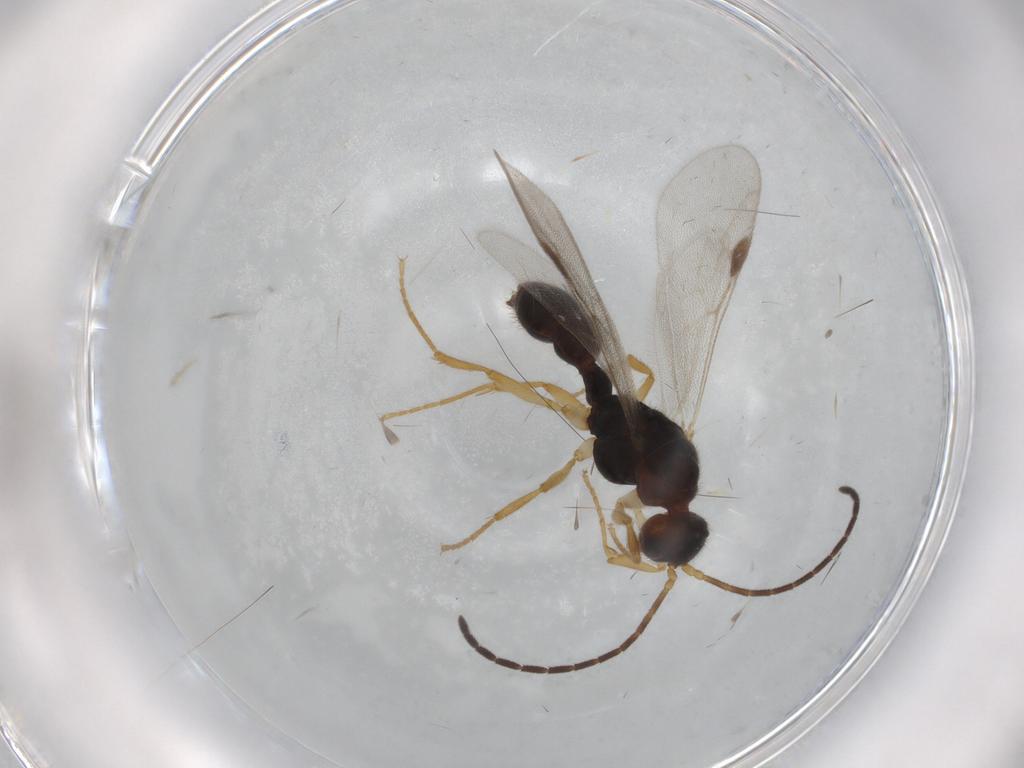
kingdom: Animalia
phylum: Arthropoda
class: Insecta
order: Hymenoptera
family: Formicidae
